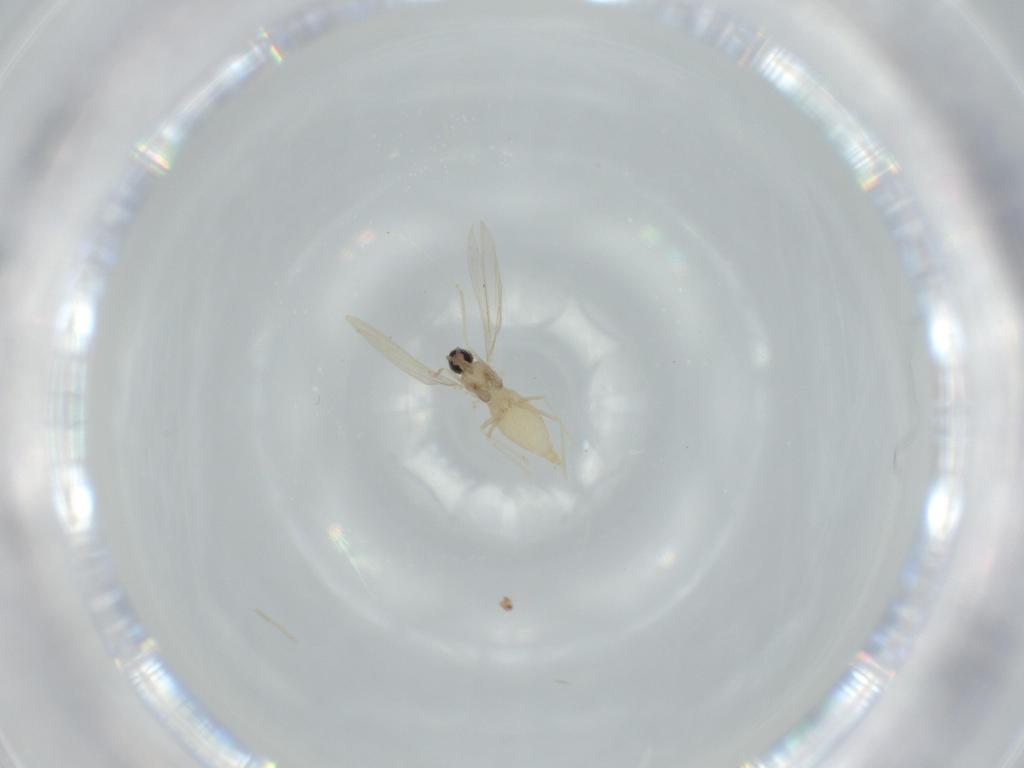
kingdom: Animalia
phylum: Arthropoda
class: Insecta
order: Diptera
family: Cecidomyiidae
